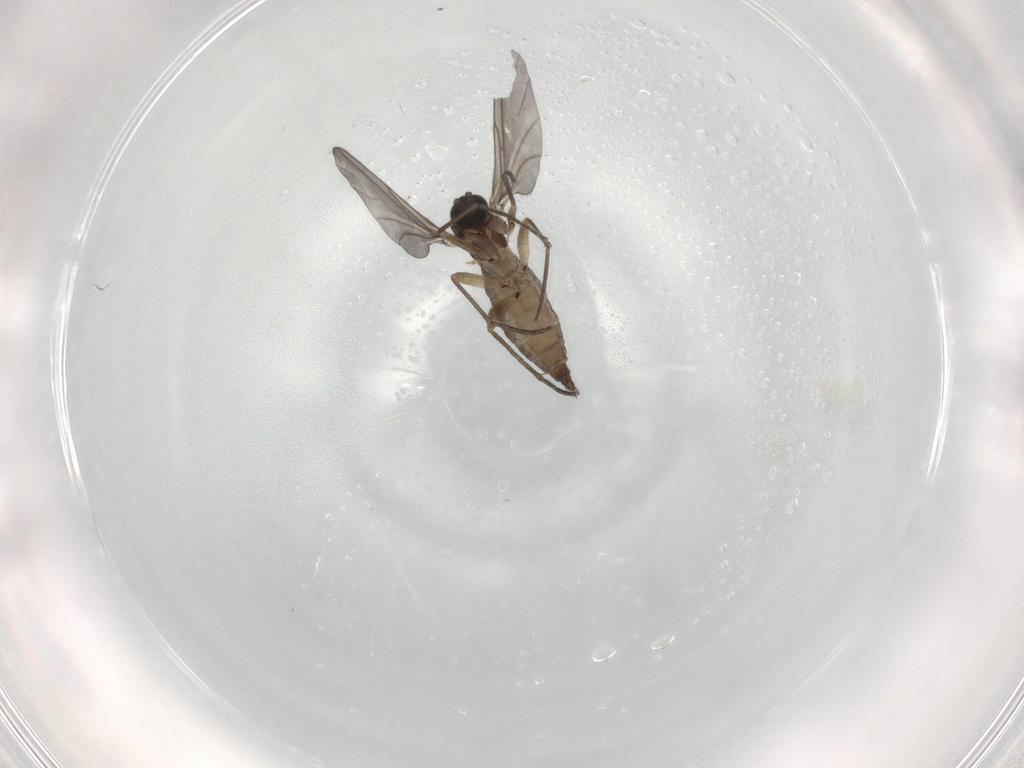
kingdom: Animalia
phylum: Arthropoda
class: Insecta
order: Diptera
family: Sciaridae
